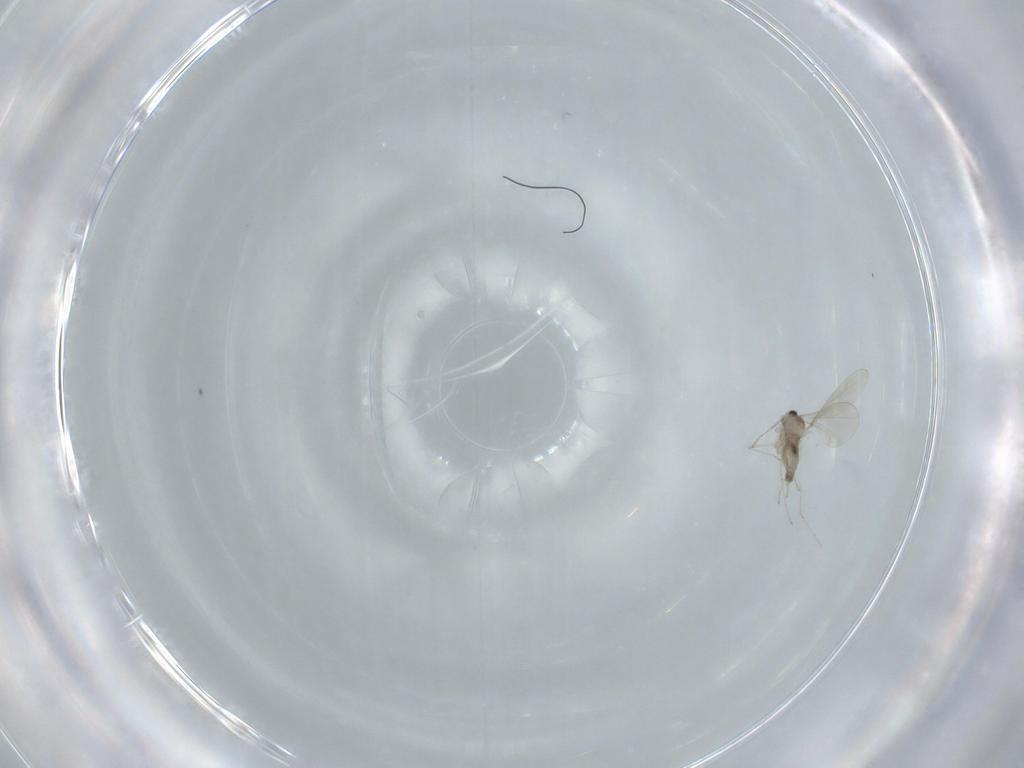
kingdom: Animalia
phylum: Arthropoda
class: Insecta
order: Diptera
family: Cecidomyiidae
